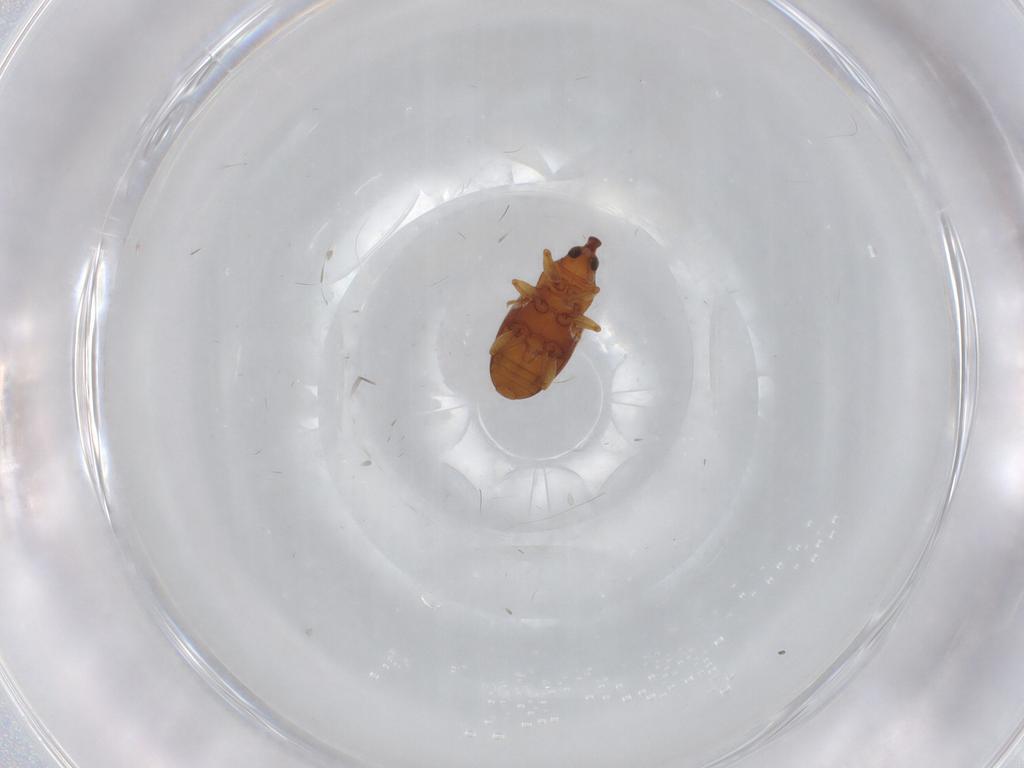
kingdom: Animalia
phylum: Arthropoda
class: Insecta
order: Coleoptera
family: Curculionidae
